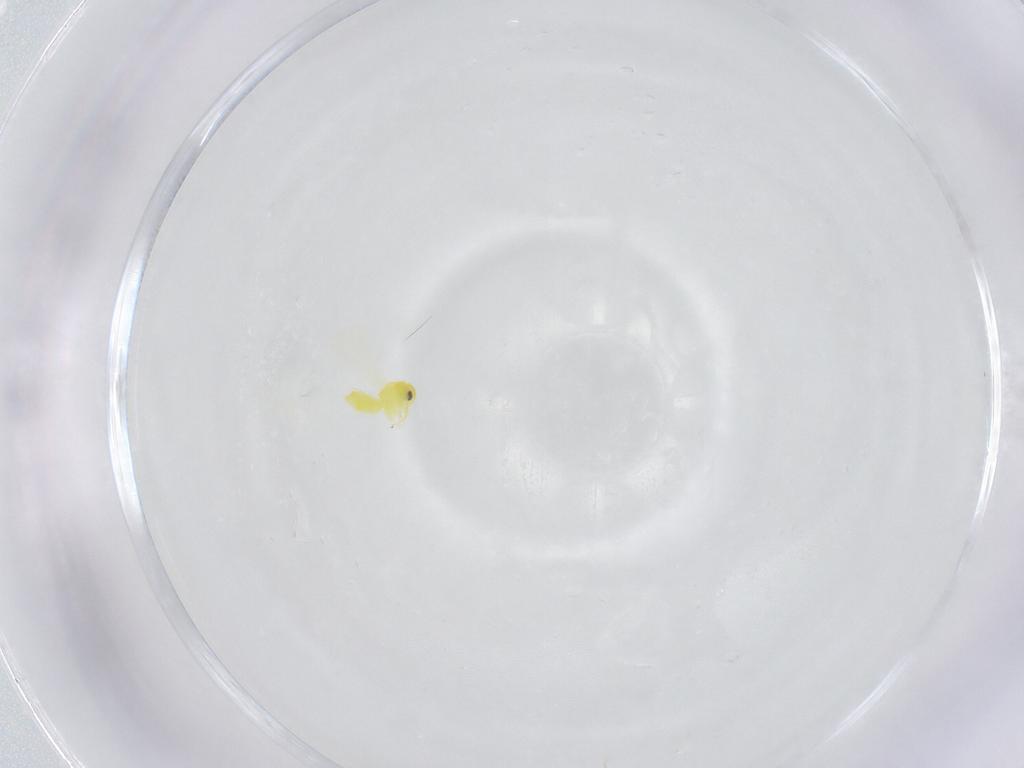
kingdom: Animalia
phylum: Arthropoda
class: Insecta
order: Hemiptera
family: Aleyrodidae
